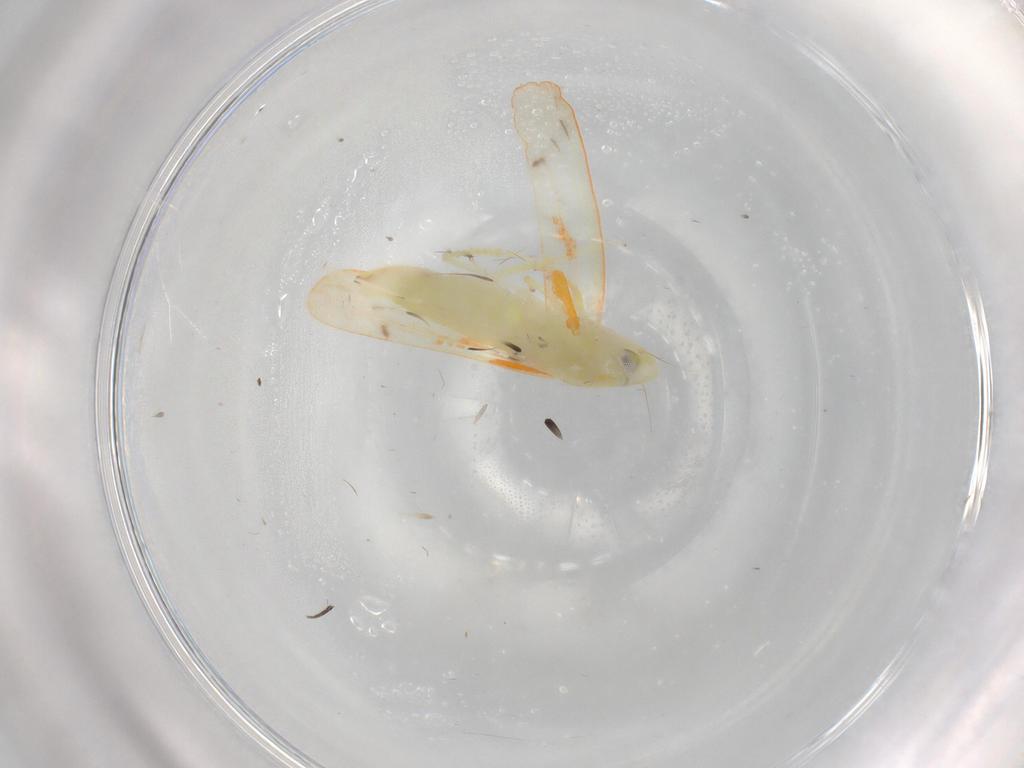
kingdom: Animalia
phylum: Arthropoda
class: Insecta
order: Hemiptera
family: Cicadellidae
